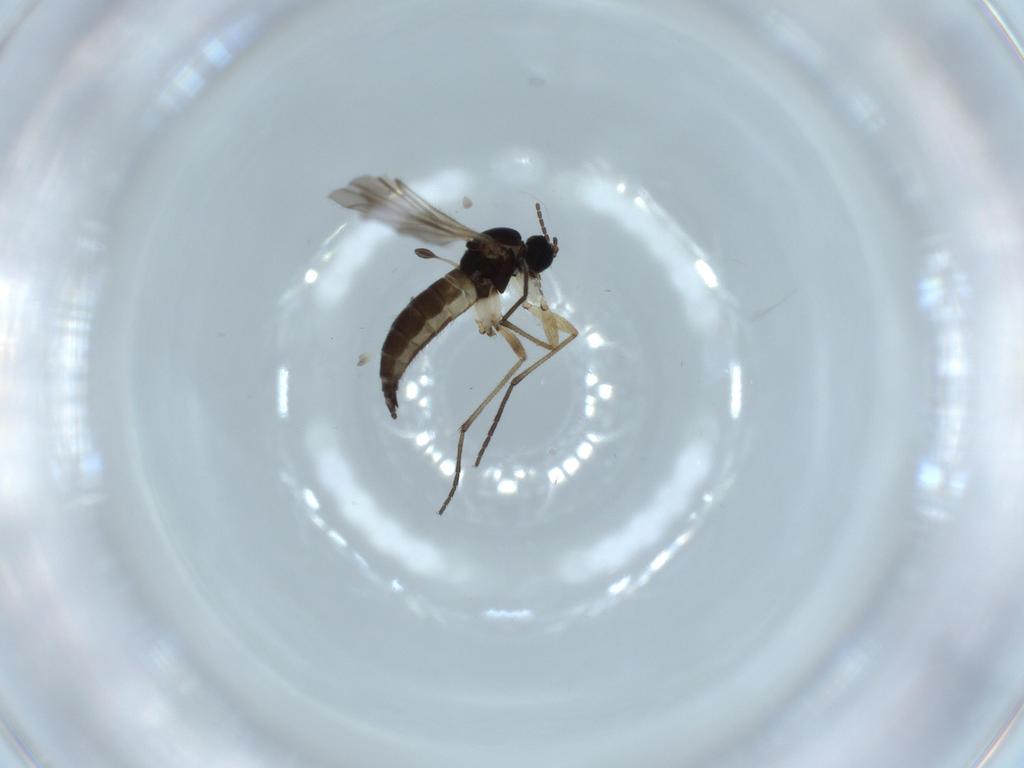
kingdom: Animalia
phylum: Arthropoda
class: Insecta
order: Diptera
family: Sciaridae
